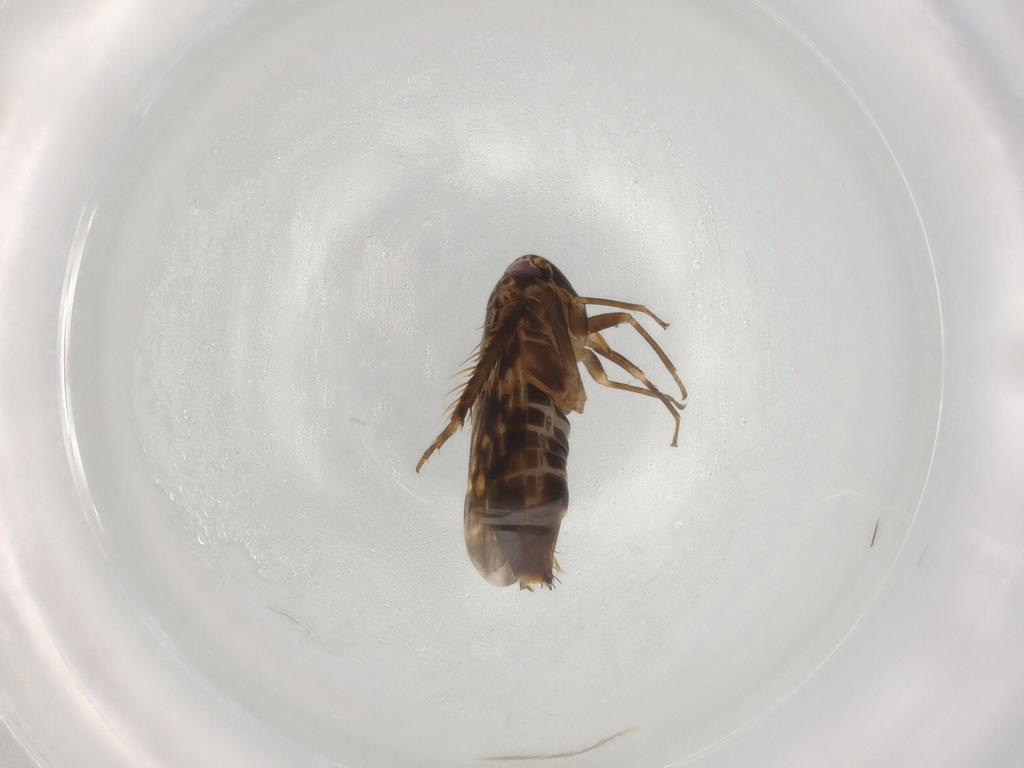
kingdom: Animalia
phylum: Arthropoda
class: Insecta
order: Hemiptera
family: Cicadellidae
